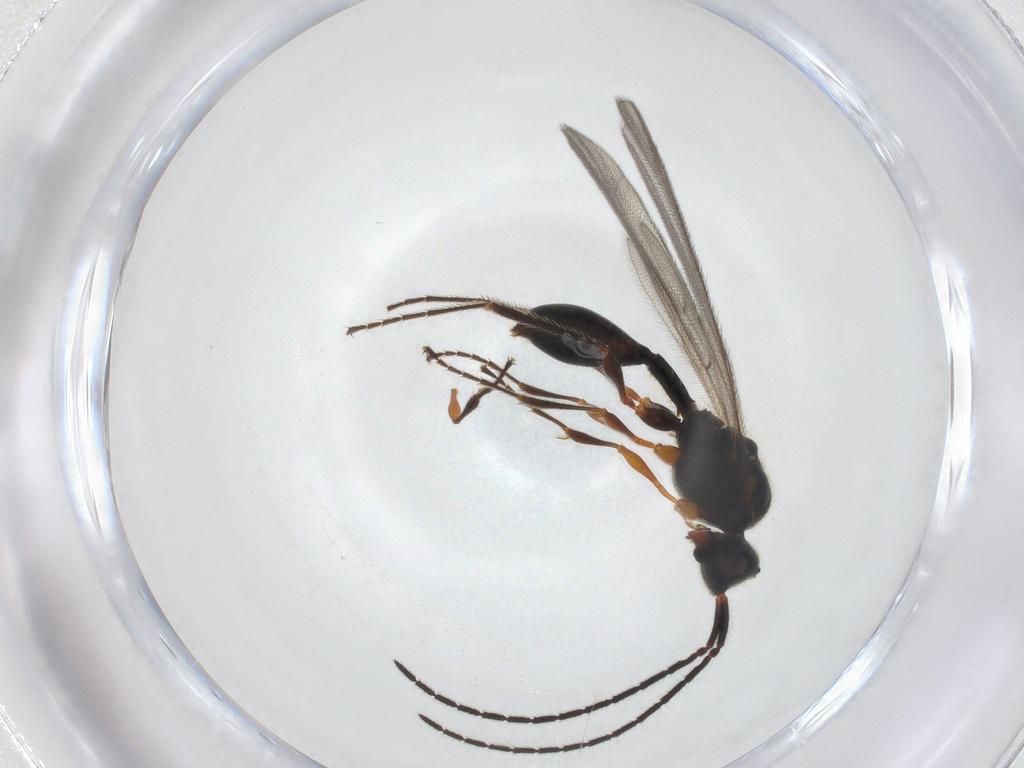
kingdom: Animalia
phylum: Arthropoda
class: Insecta
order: Hymenoptera
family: Diapriidae
